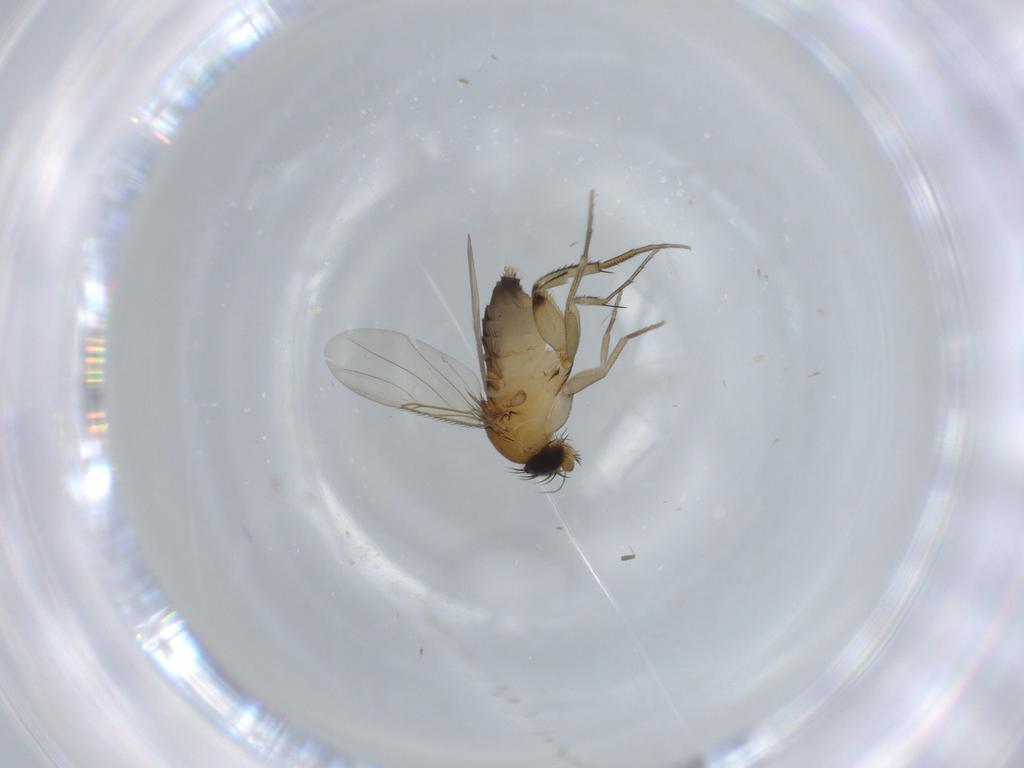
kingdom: Animalia
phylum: Arthropoda
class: Insecta
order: Diptera
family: Phoridae
